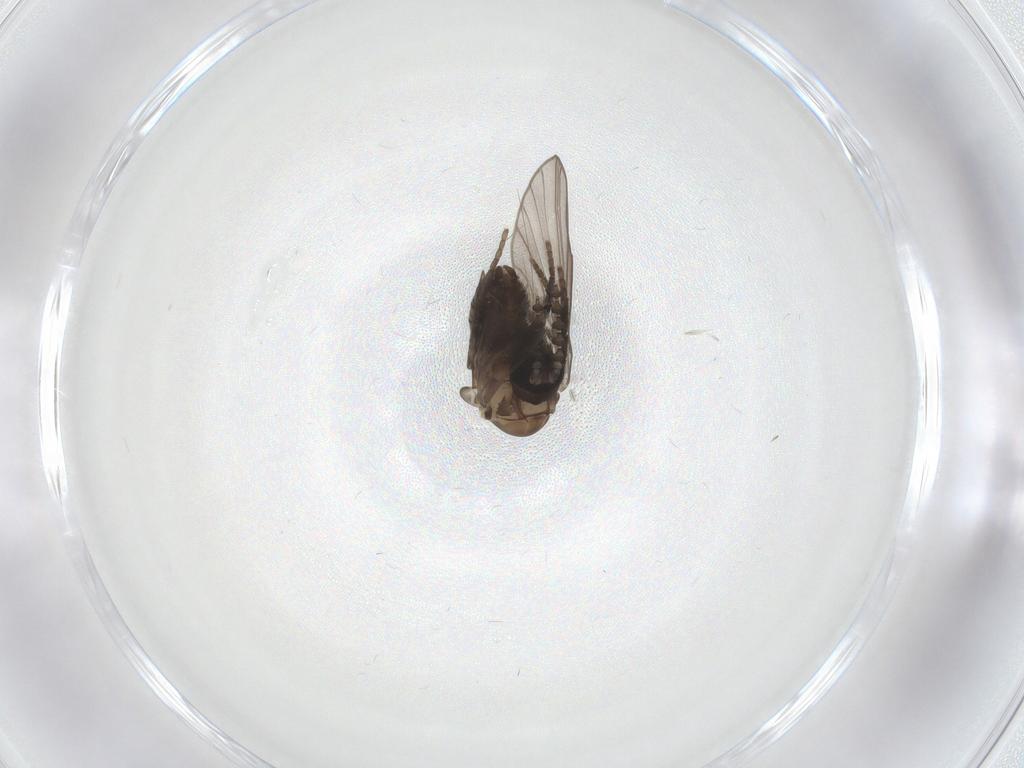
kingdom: Animalia
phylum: Arthropoda
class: Insecta
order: Diptera
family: Psychodidae
